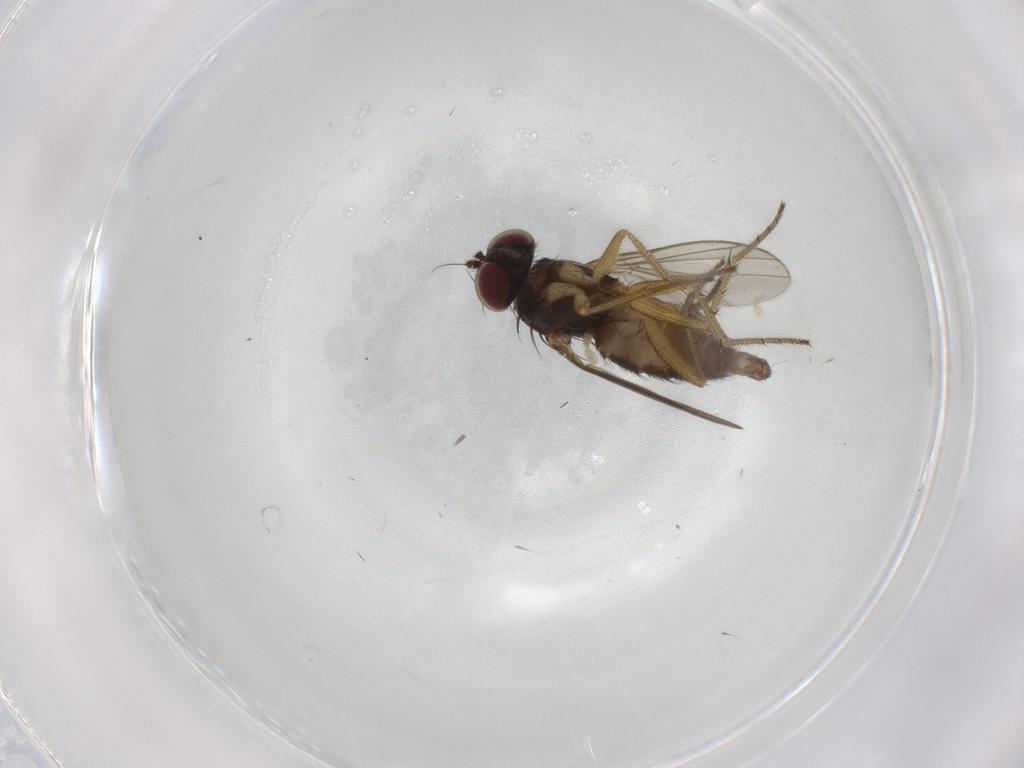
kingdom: Animalia
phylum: Arthropoda
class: Insecta
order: Diptera
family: Dolichopodidae
